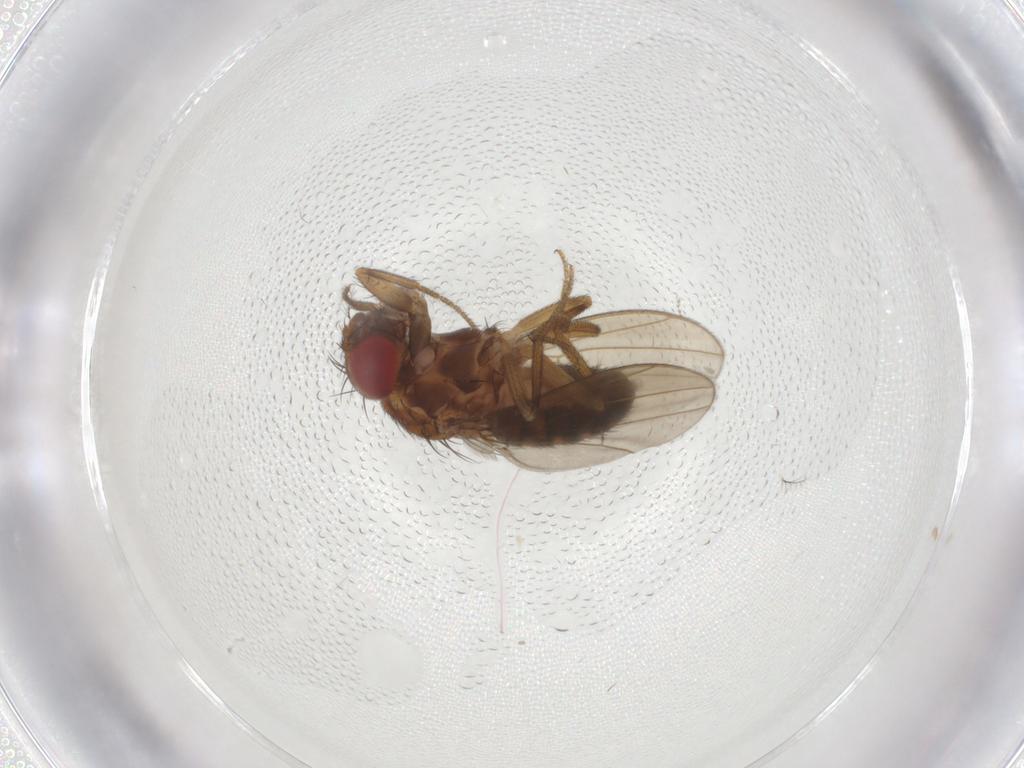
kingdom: Animalia
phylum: Arthropoda
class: Insecta
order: Diptera
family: Drosophilidae
